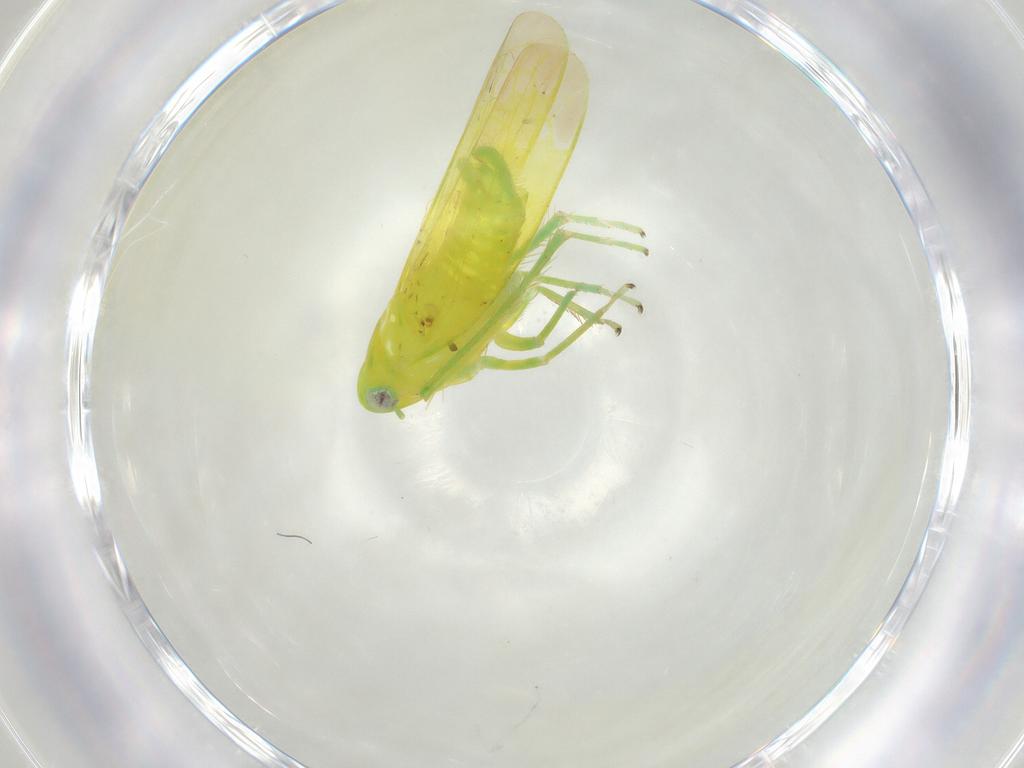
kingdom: Animalia
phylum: Arthropoda
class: Insecta
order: Hemiptera
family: Cicadellidae
